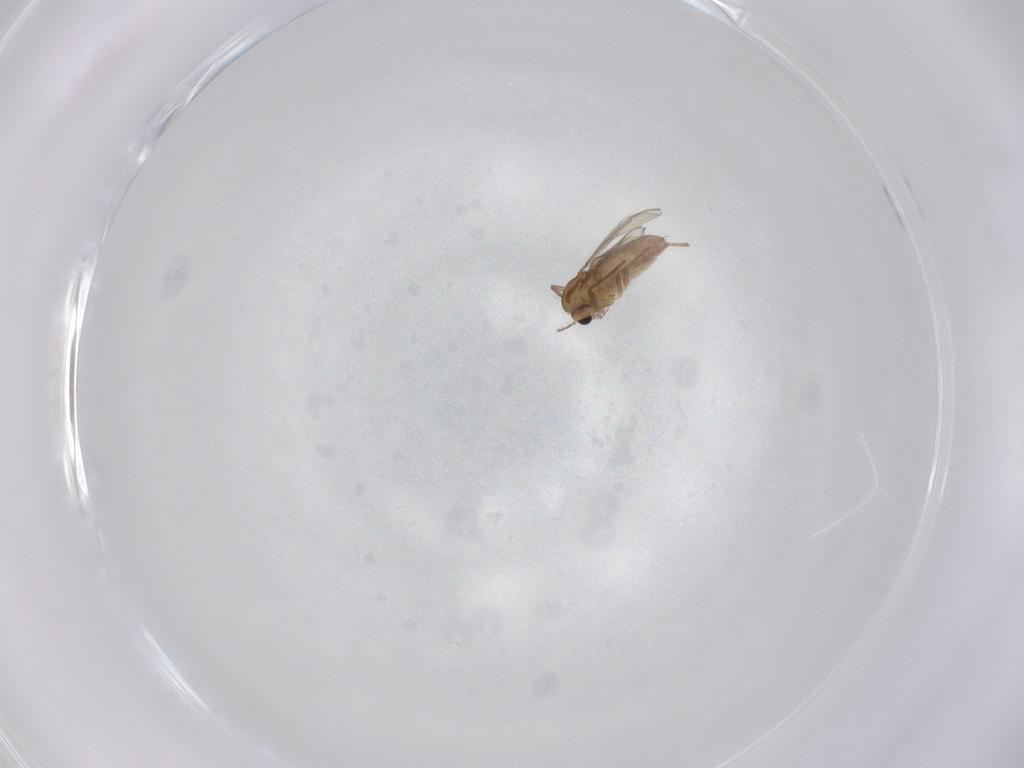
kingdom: Animalia
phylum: Arthropoda
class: Insecta
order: Diptera
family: Chironomidae
